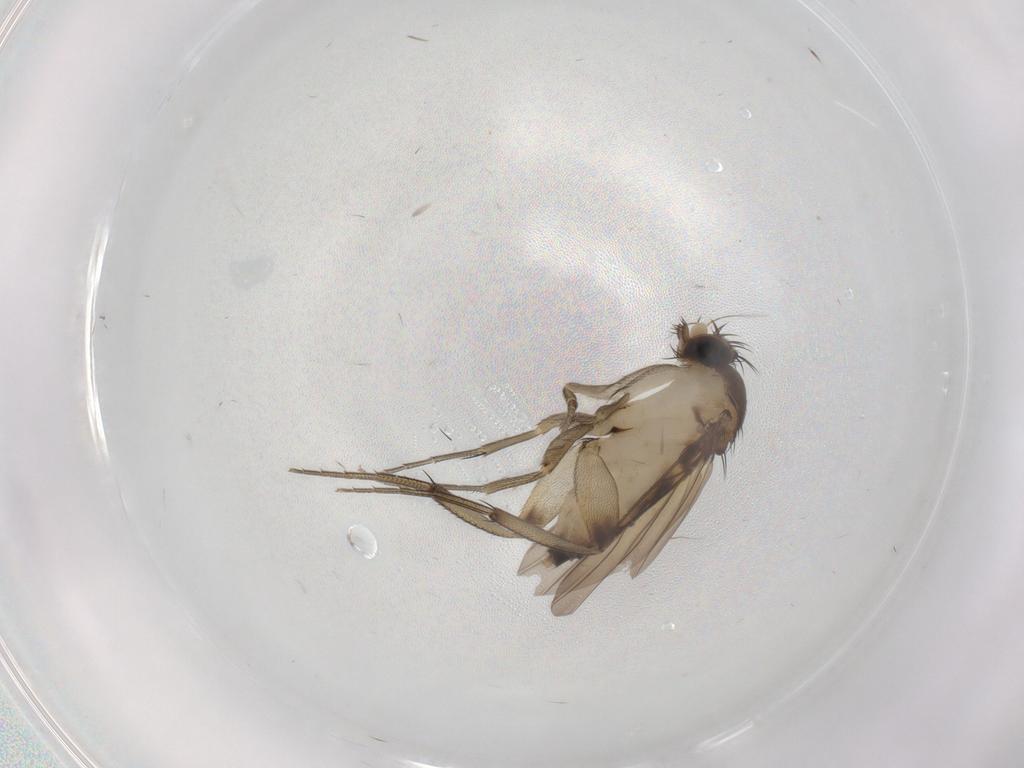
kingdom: Animalia
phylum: Arthropoda
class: Insecta
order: Diptera
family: Phoridae
